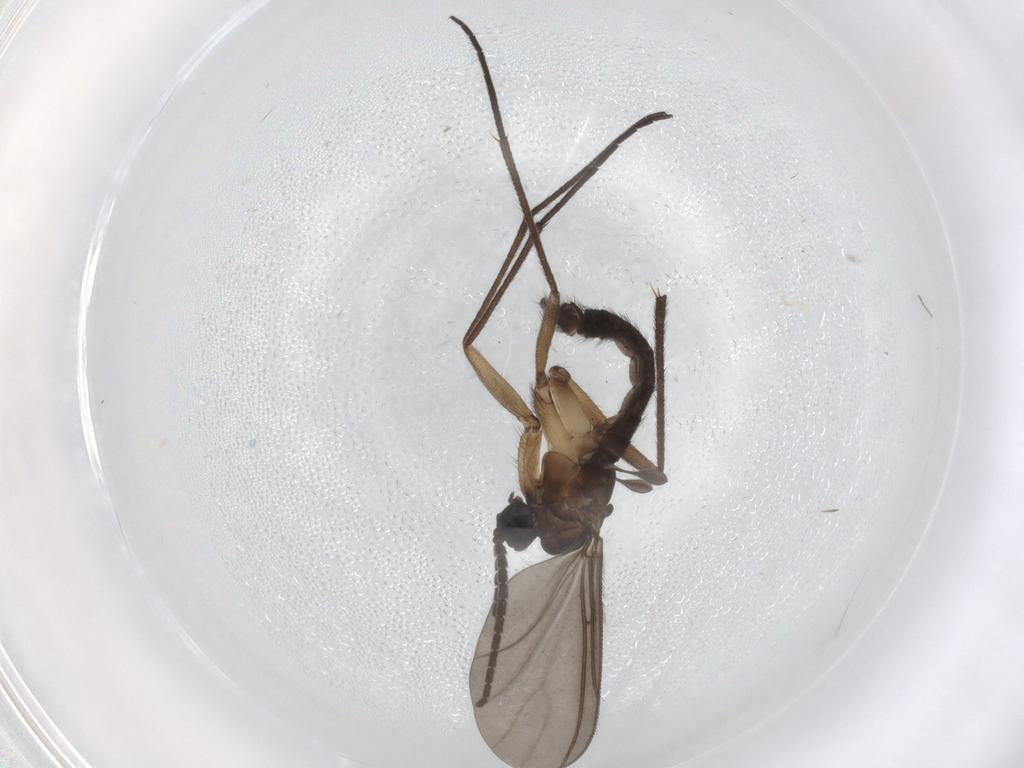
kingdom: Animalia
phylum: Arthropoda
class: Insecta
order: Diptera
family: Sciaridae
